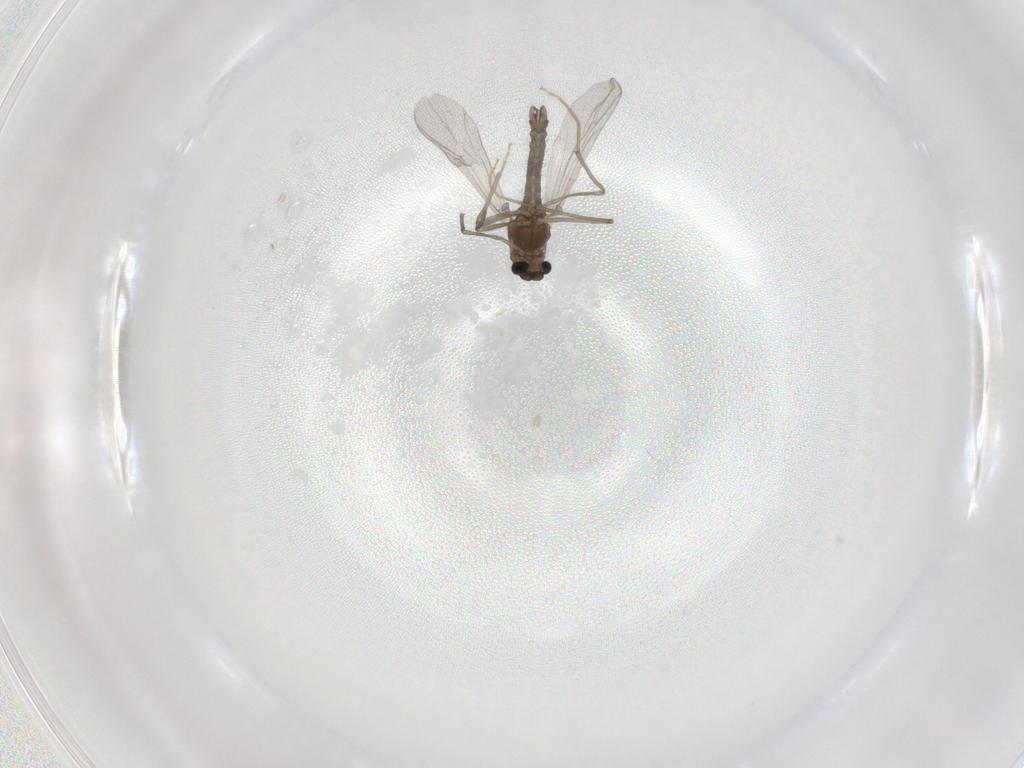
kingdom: Animalia
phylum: Arthropoda
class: Insecta
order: Diptera
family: Chironomidae
